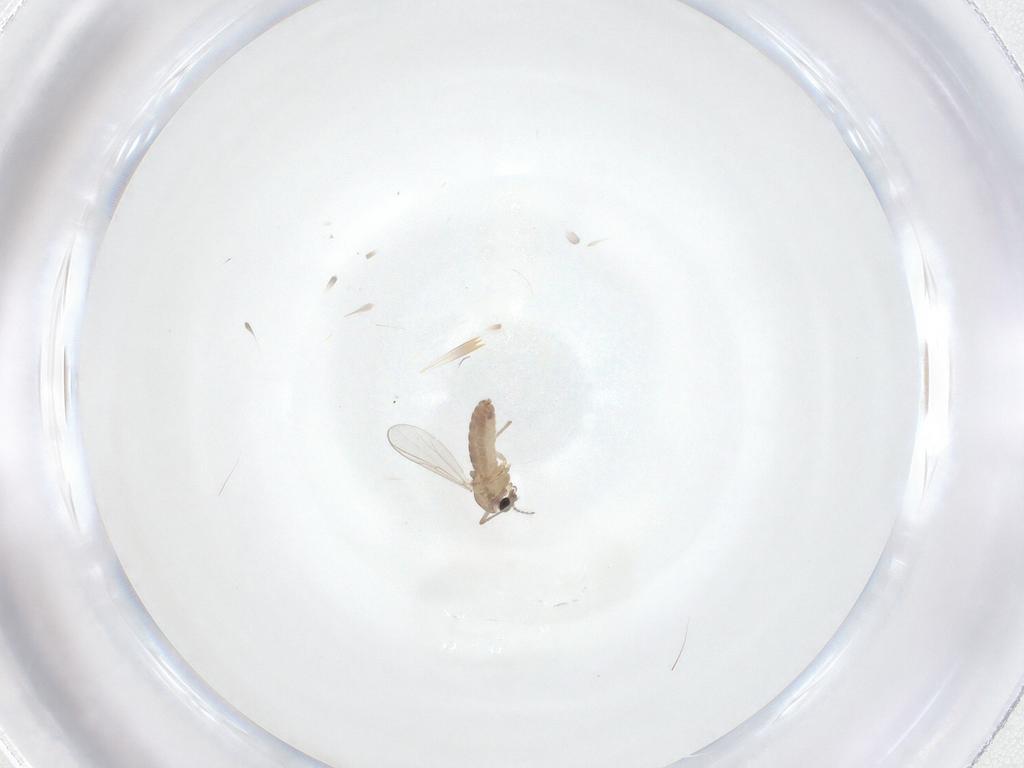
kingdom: Animalia
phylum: Arthropoda
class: Insecta
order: Diptera
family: Chironomidae
